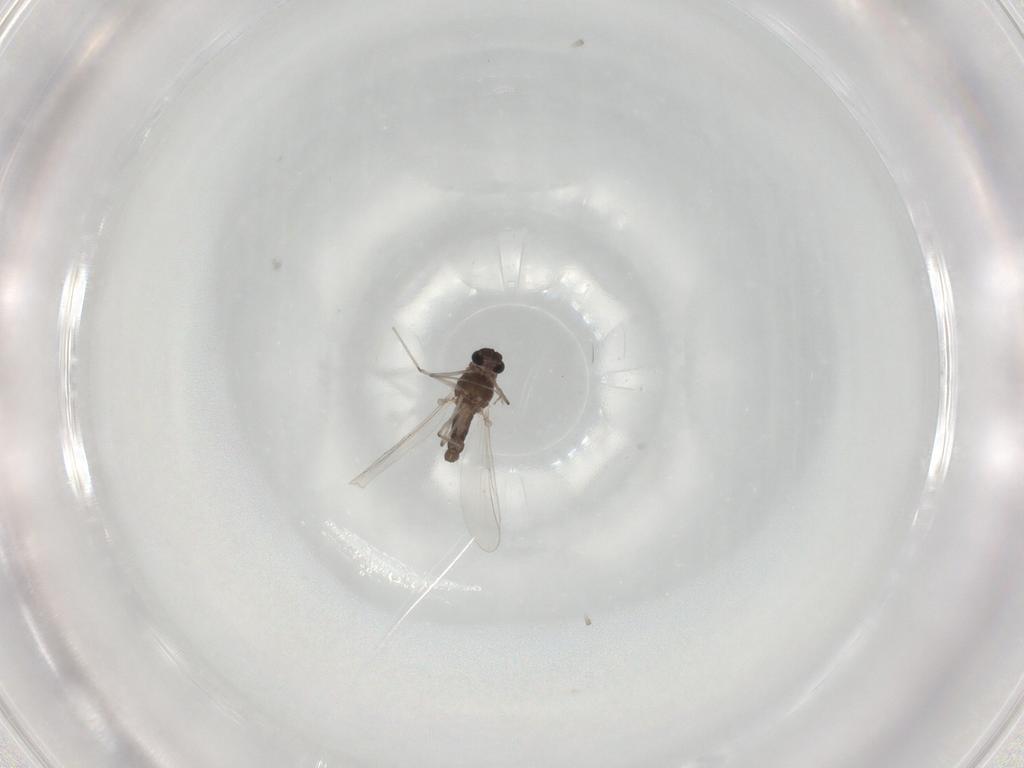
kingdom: Animalia
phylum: Arthropoda
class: Insecta
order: Diptera
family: Chironomidae
